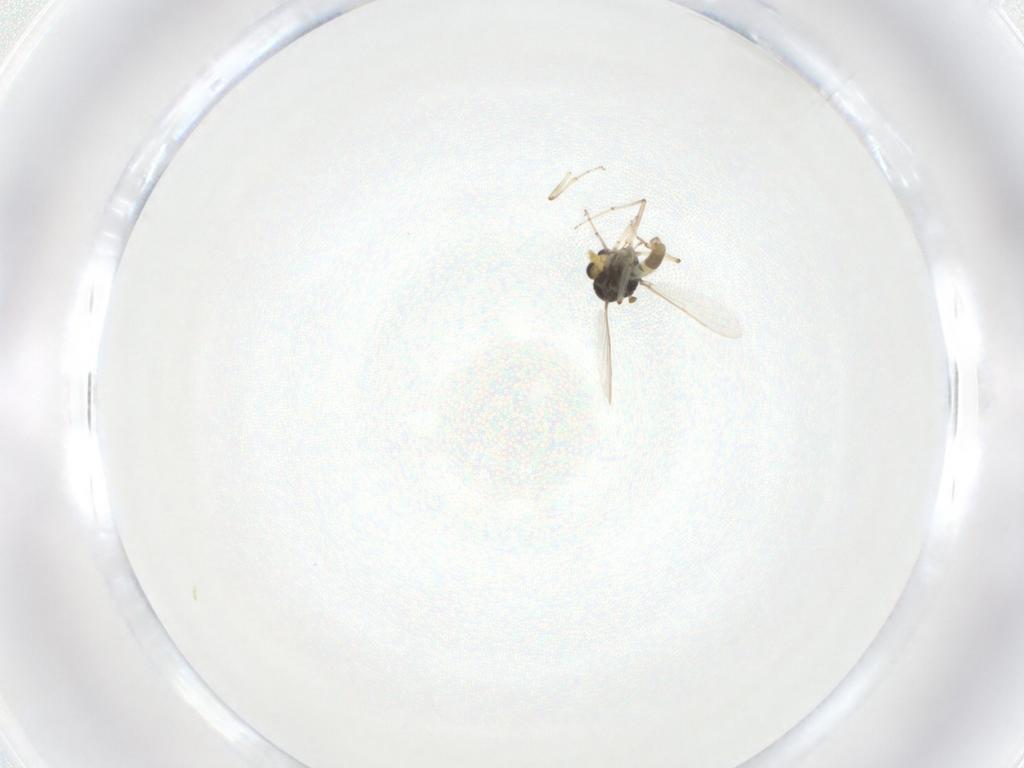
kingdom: Animalia
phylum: Arthropoda
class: Insecta
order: Diptera
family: Ceratopogonidae
